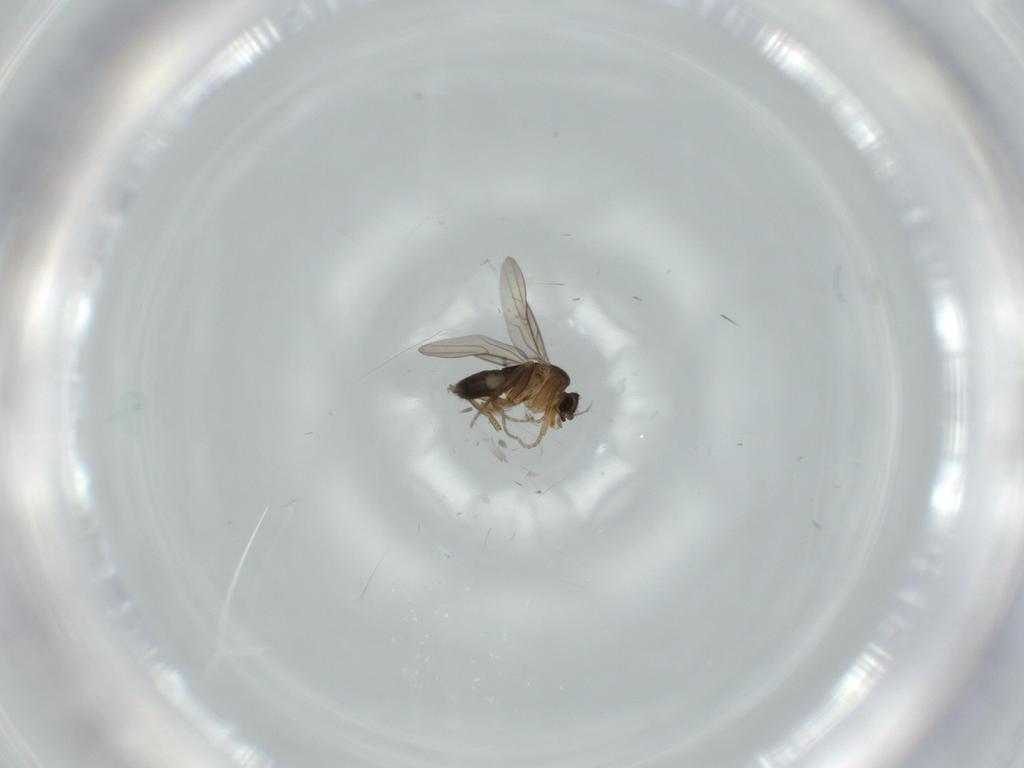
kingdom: Animalia
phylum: Arthropoda
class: Insecta
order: Diptera
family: Phoridae
